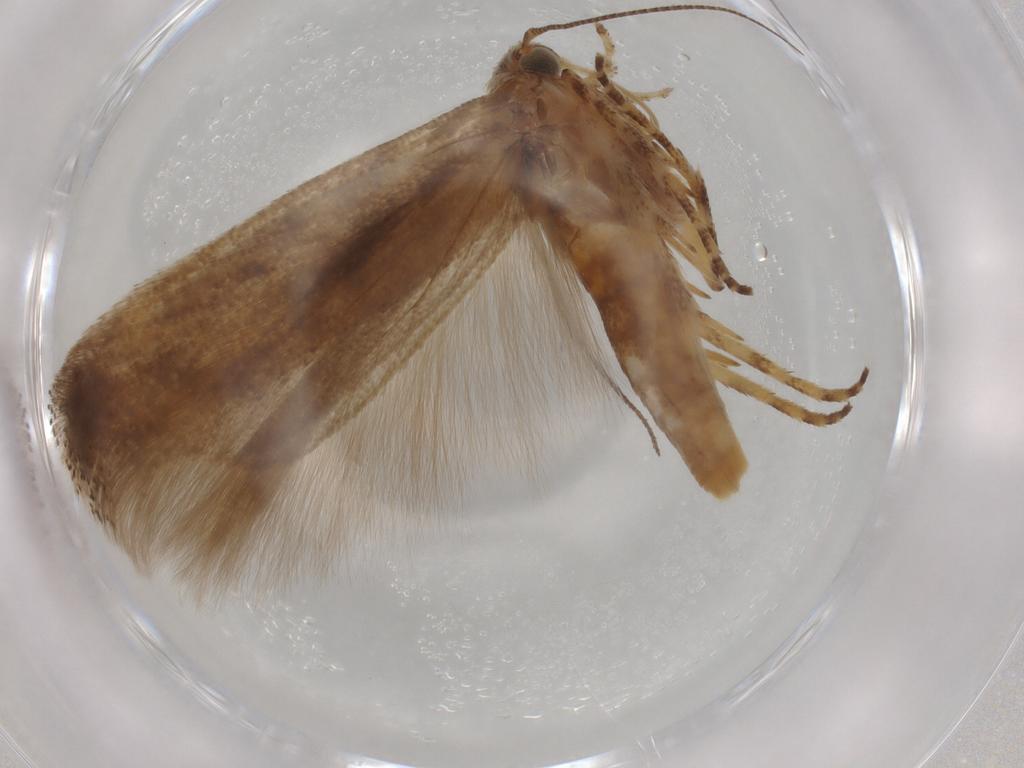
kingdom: Animalia
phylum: Arthropoda
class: Insecta
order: Lepidoptera
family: Gelechiidae
